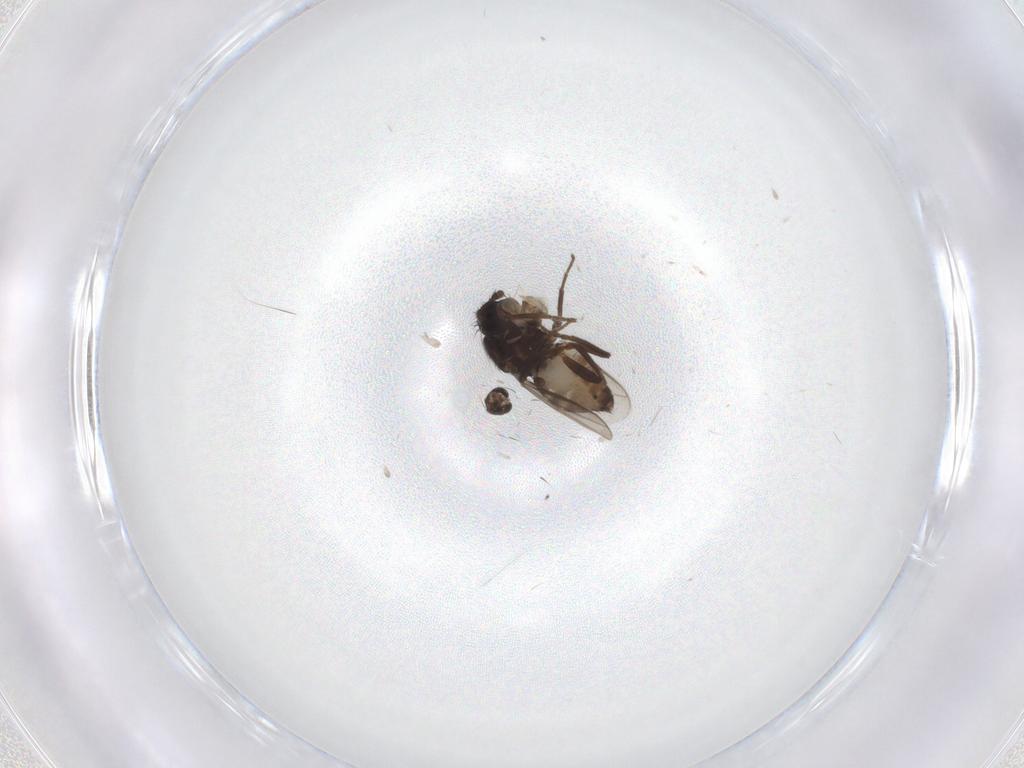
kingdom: Animalia
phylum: Arthropoda
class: Insecta
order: Diptera
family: Sphaeroceridae
